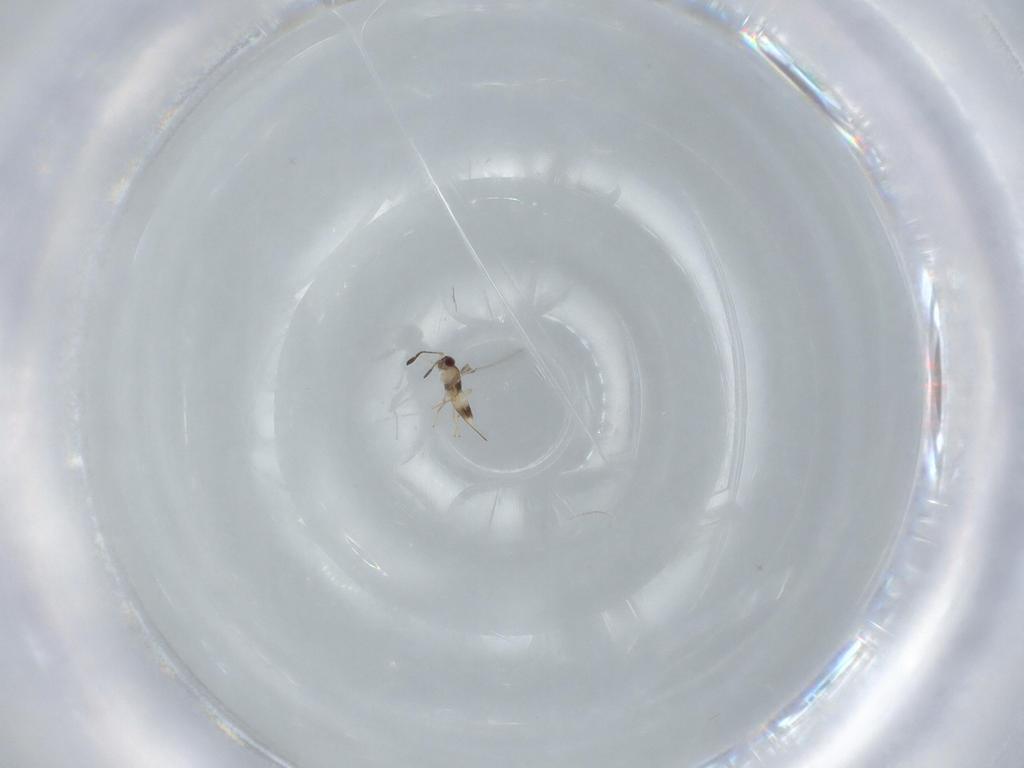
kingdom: Animalia
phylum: Arthropoda
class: Insecta
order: Hymenoptera
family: Mymaridae
